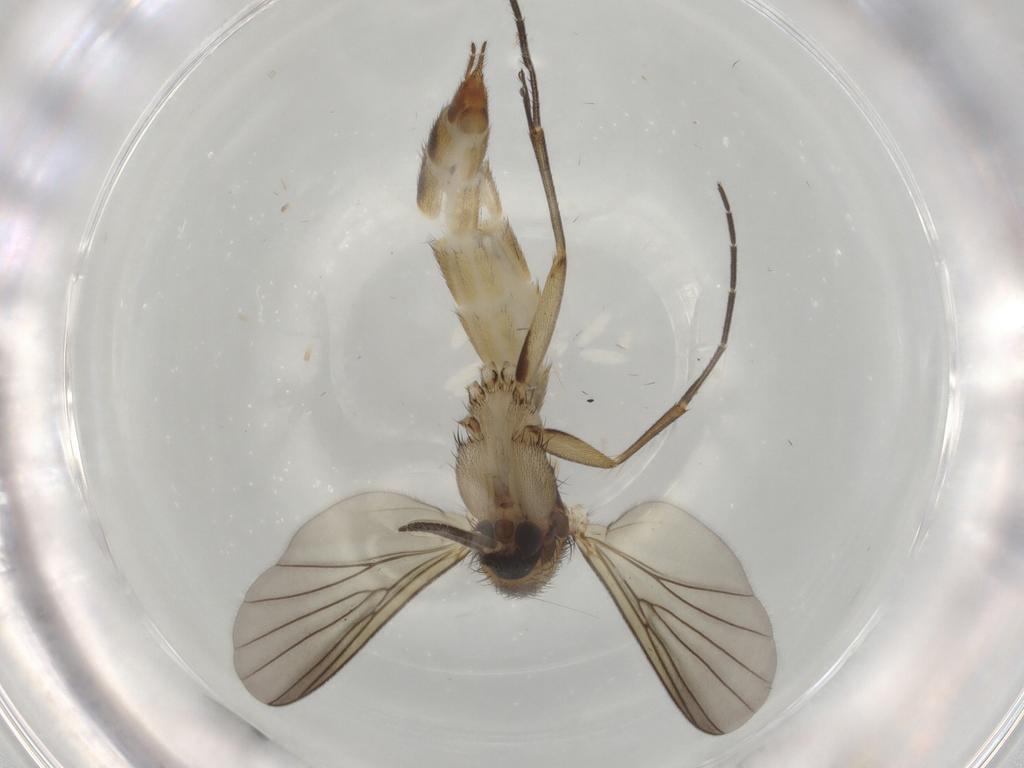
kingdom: Animalia
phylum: Arthropoda
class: Insecta
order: Diptera
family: Mycetophilidae
